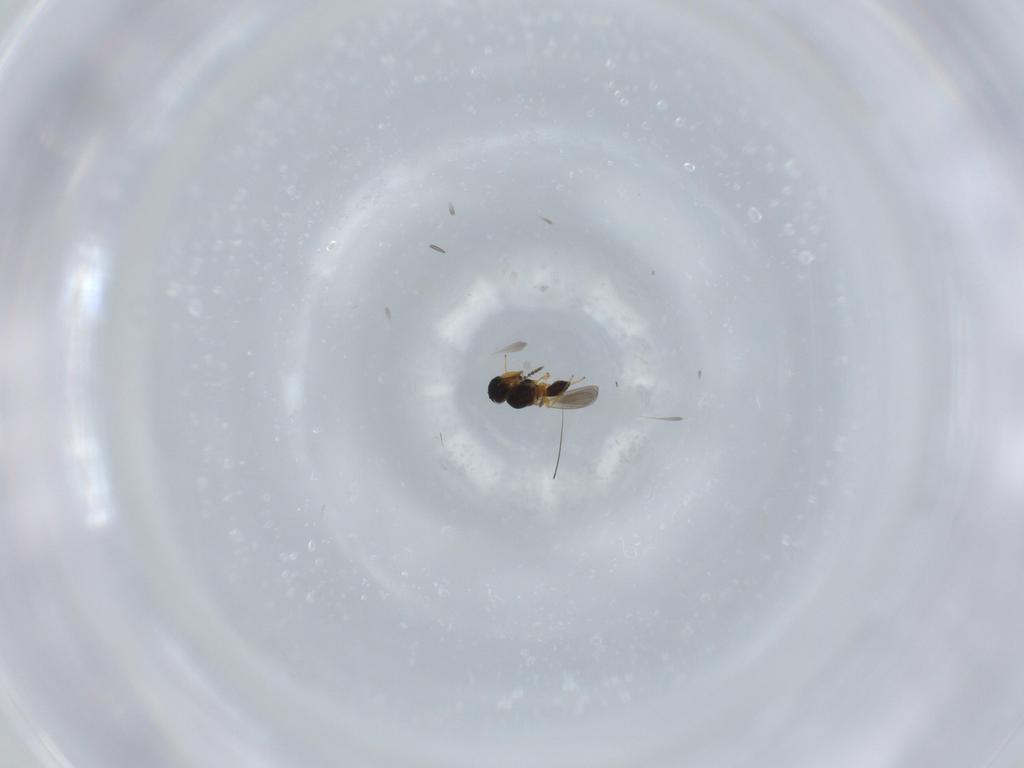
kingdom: Animalia
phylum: Arthropoda
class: Insecta
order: Hymenoptera
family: Platygastridae
